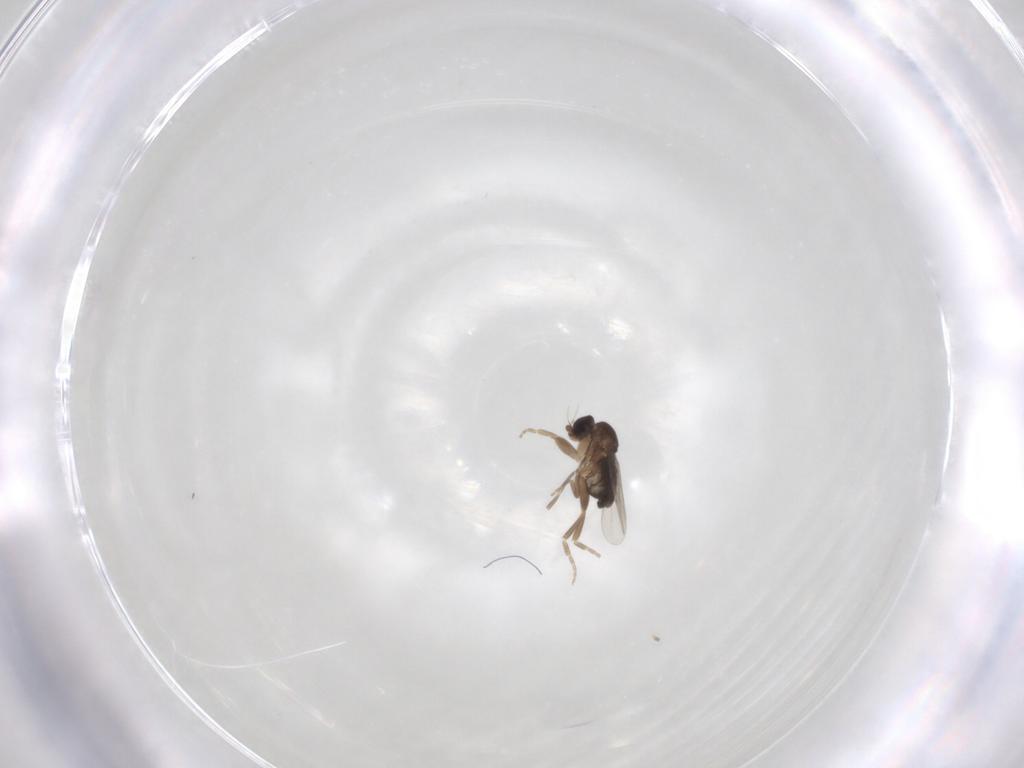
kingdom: Animalia
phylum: Arthropoda
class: Insecta
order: Diptera
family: Phoridae
